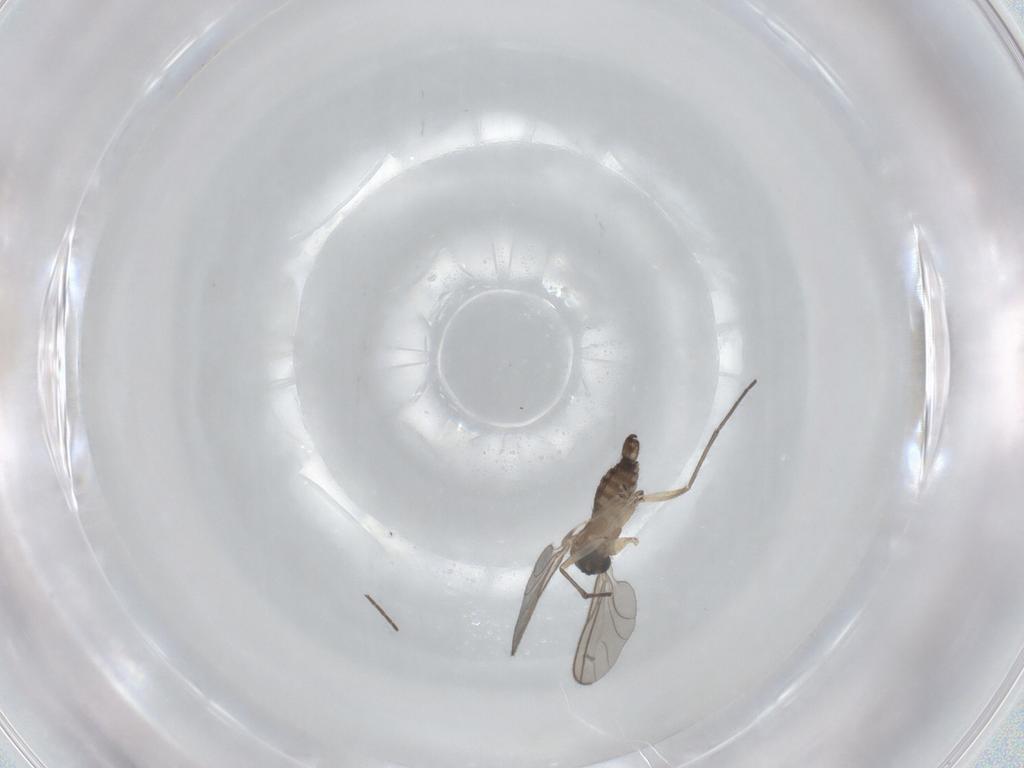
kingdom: Animalia
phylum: Arthropoda
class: Insecta
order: Diptera
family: Sciaridae
